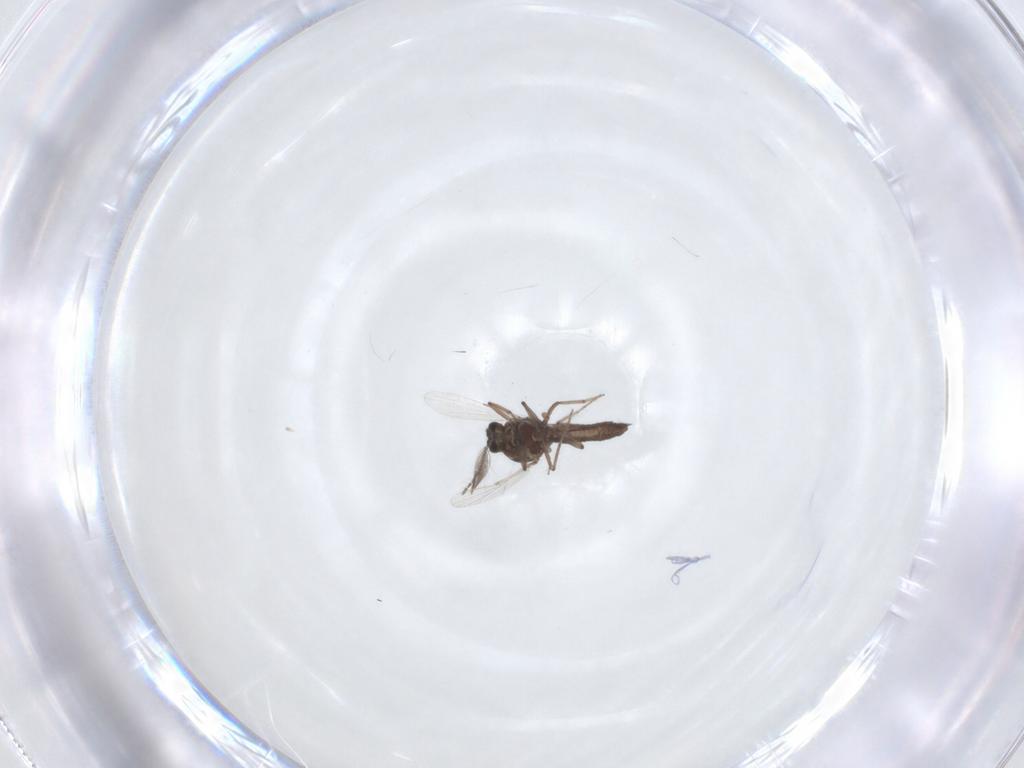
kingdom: Animalia
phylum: Arthropoda
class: Insecta
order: Diptera
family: Ceratopogonidae
